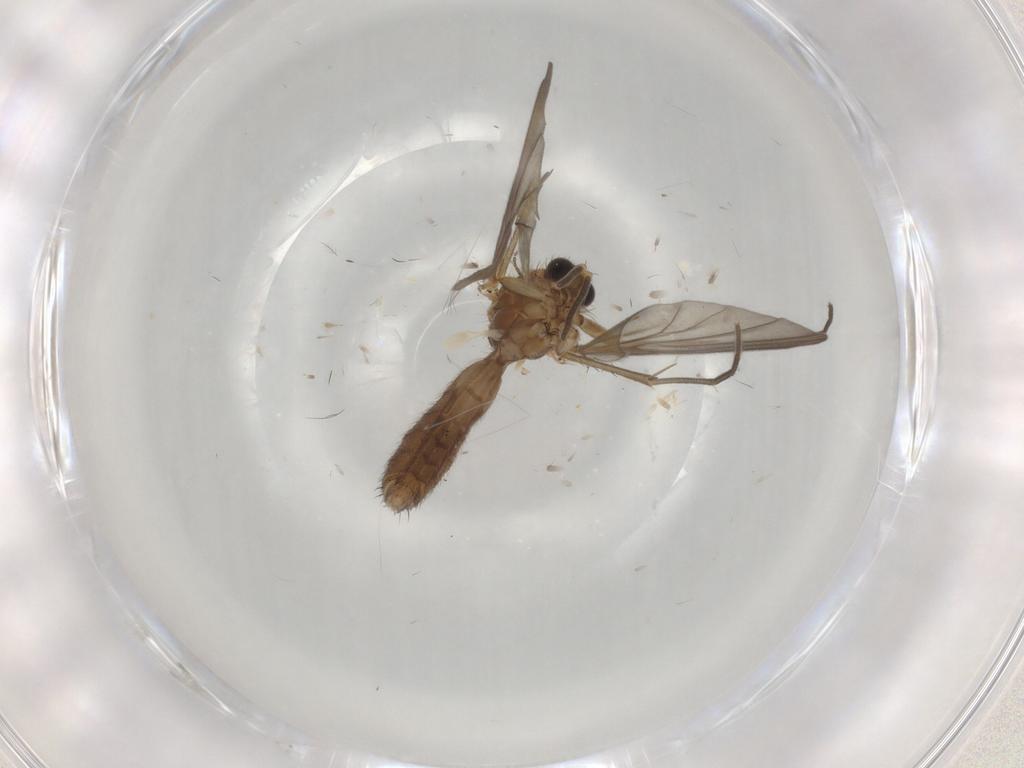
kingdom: Animalia
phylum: Arthropoda
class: Insecta
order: Diptera
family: Mycetophilidae
